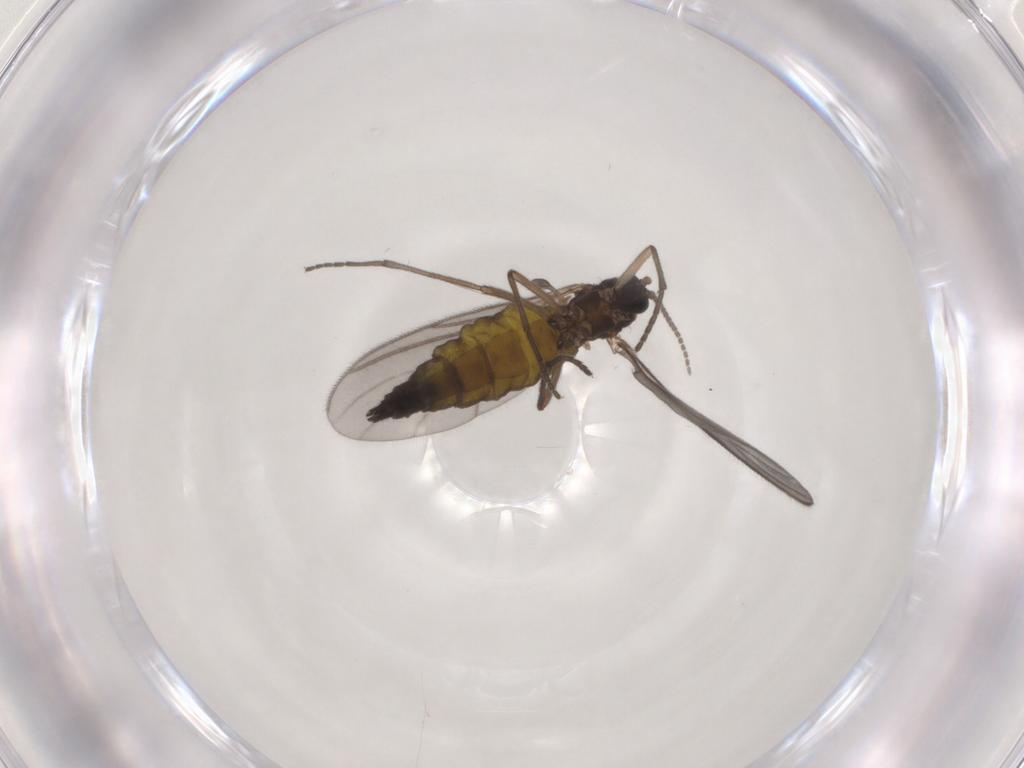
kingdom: Animalia
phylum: Arthropoda
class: Insecta
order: Diptera
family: Sciaridae
